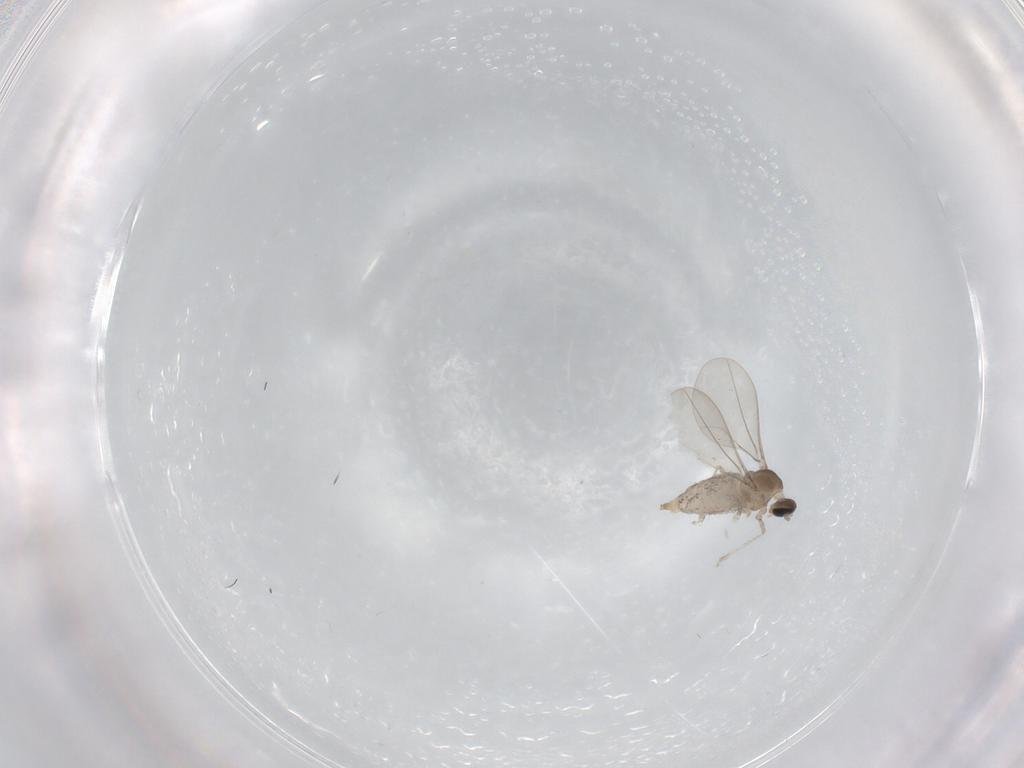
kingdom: Animalia
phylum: Arthropoda
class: Insecta
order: Diptera
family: Cecidomyiidae
